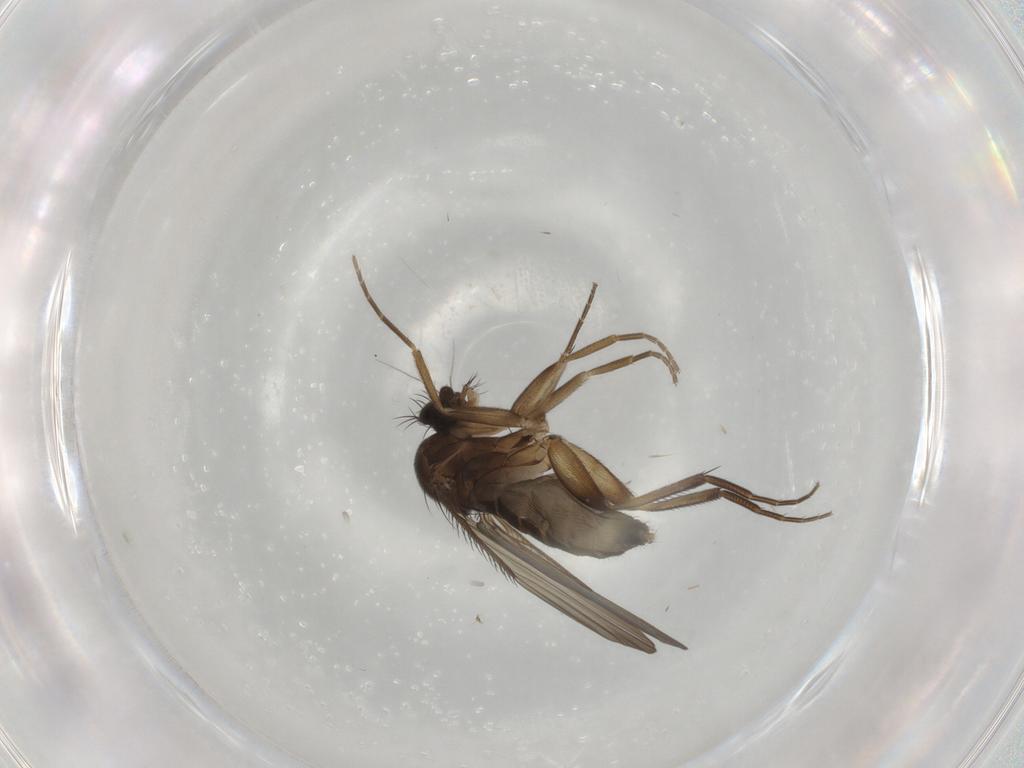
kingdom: Animalia
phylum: Arthropoda
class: Insecta
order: Diptera
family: Phoridae
